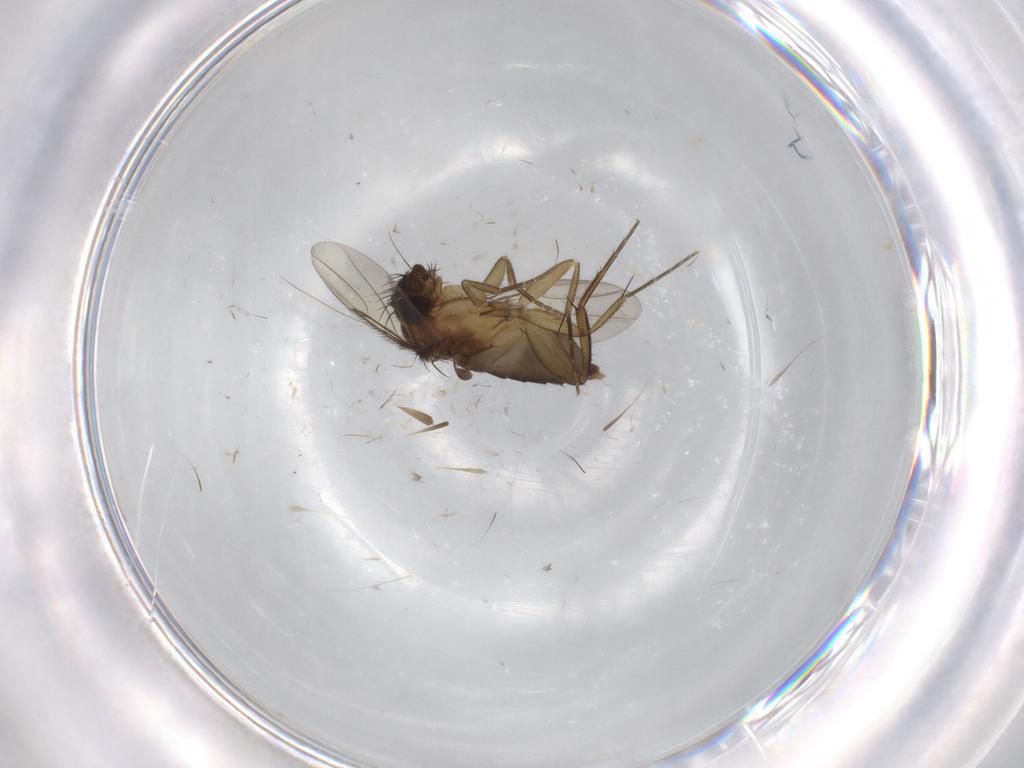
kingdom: Animalia
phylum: Arthropoda
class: Insecta
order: Diptera
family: Phoridae
